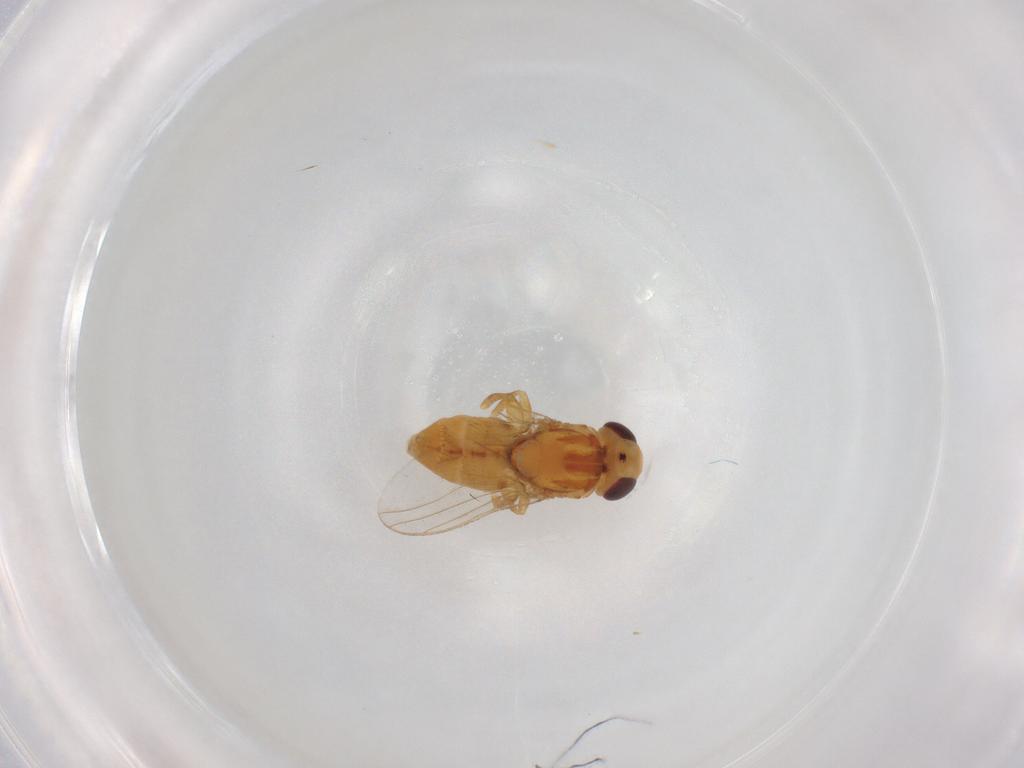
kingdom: Animalia
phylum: Arthropoda
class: Insecta
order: Diptera
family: Chloropidae
